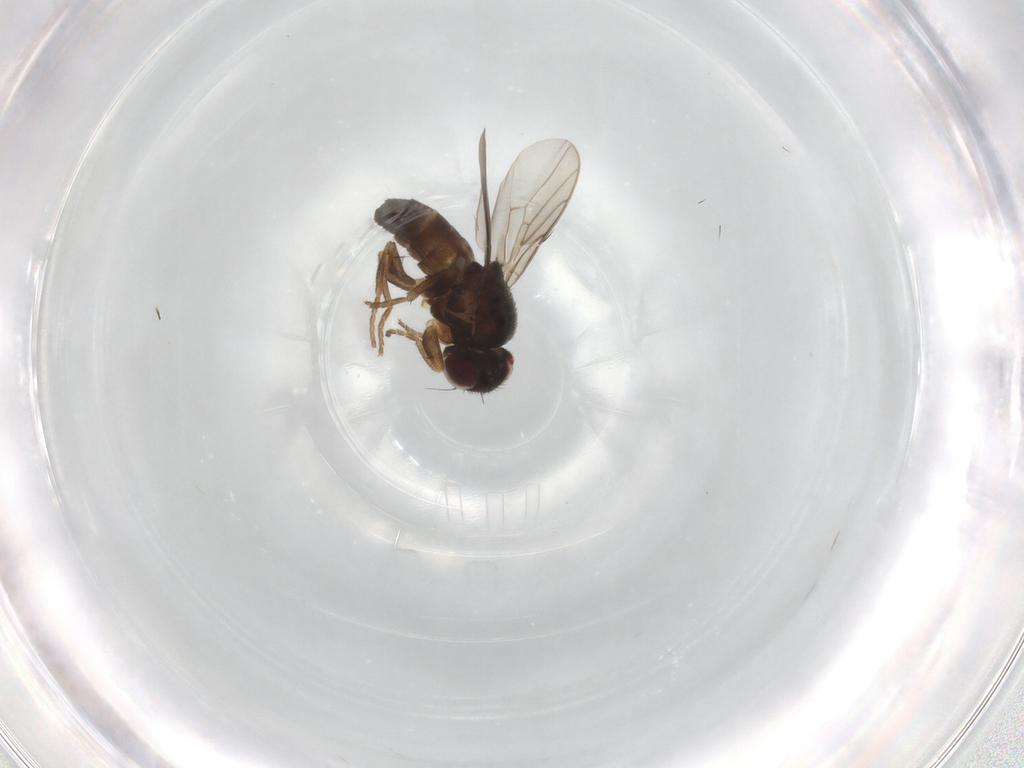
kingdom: Animalia
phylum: Arthropoda
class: Insecta
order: Diptera
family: Chloropidae
